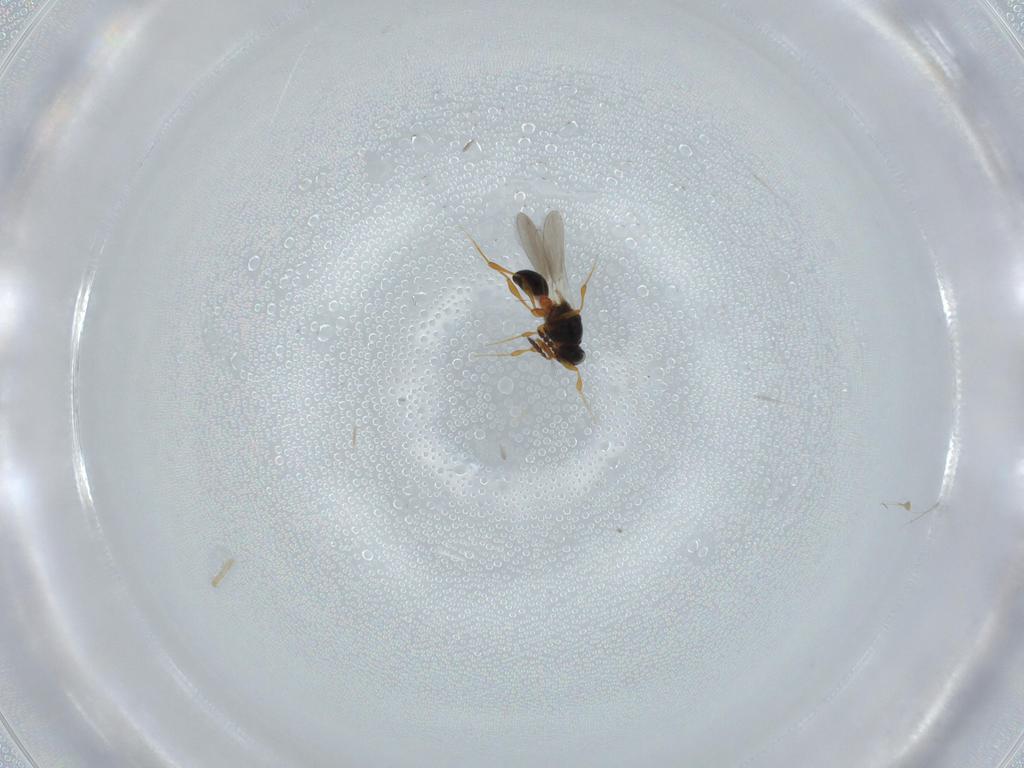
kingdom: Animalia
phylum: Arthropoda
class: Insecta
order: Hymenoptera
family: Platygastridae
